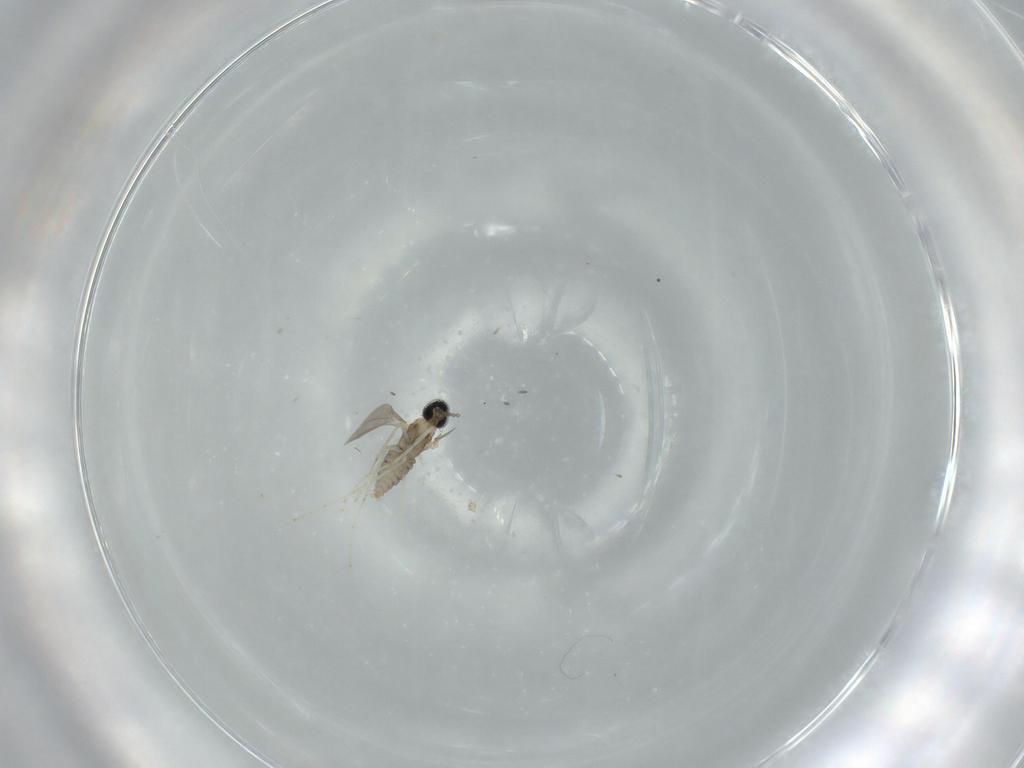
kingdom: Animalia
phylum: Arthropoda
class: Insecta
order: Diptera
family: Cecidomyiidae
